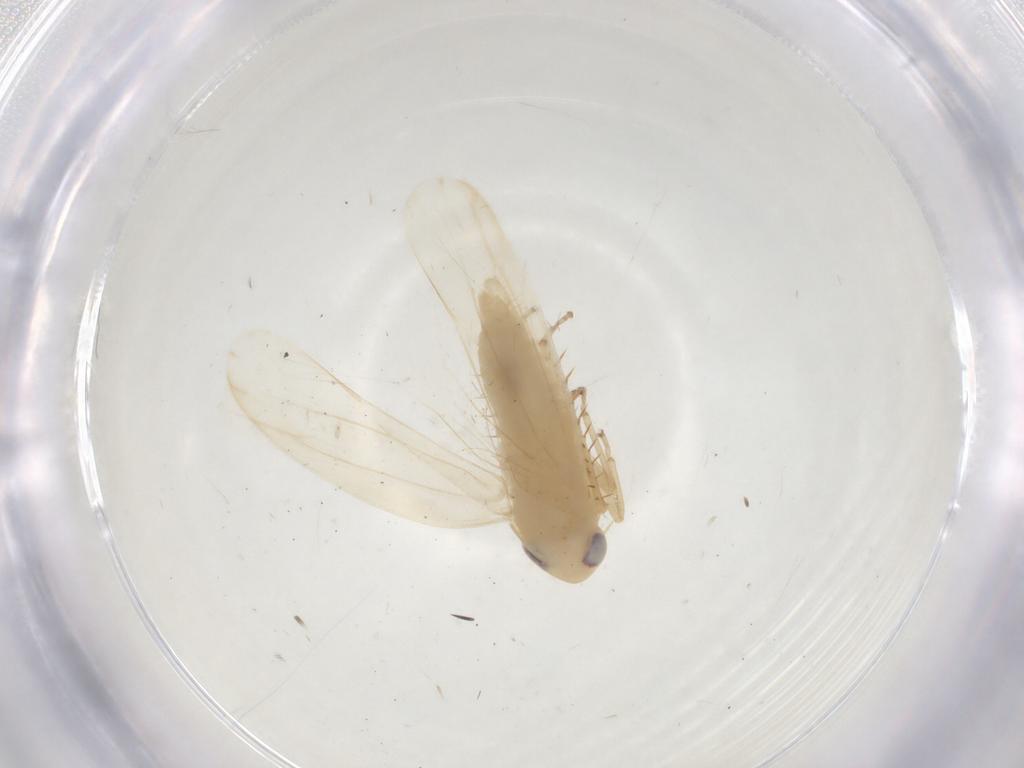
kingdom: Animalia
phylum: Arthropoda
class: Insecta
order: Hemiptera
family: Cicadellidae
